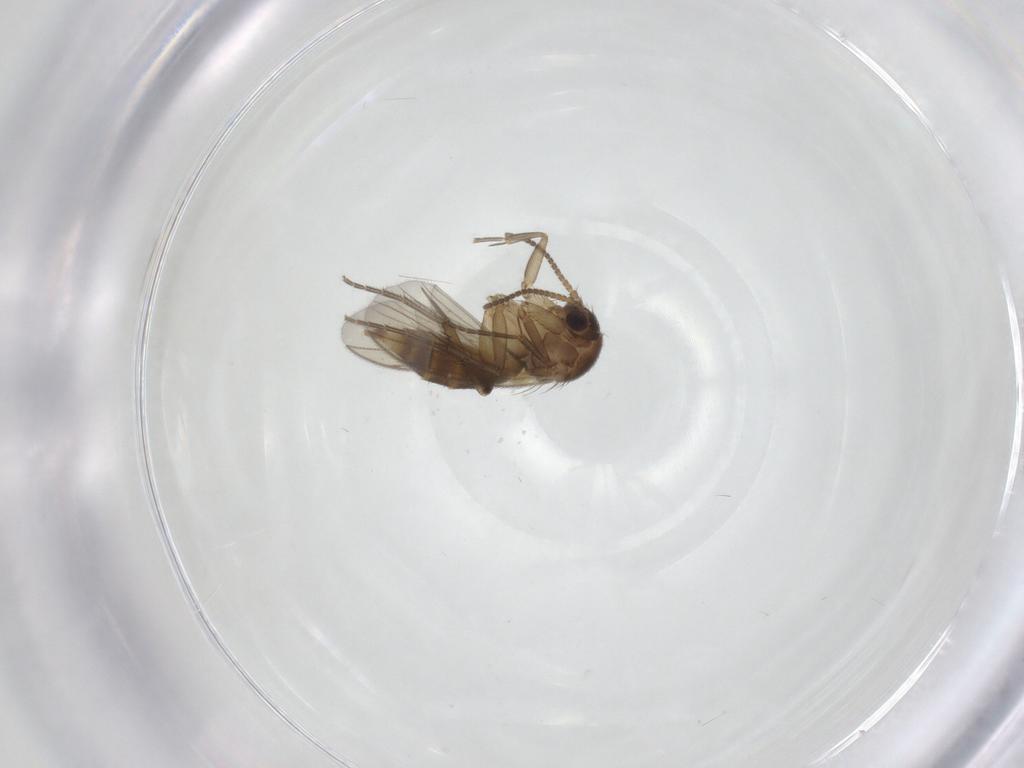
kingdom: Animalia
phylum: Arthropoda
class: Insecta
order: Diptera
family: Mycetophilidae
